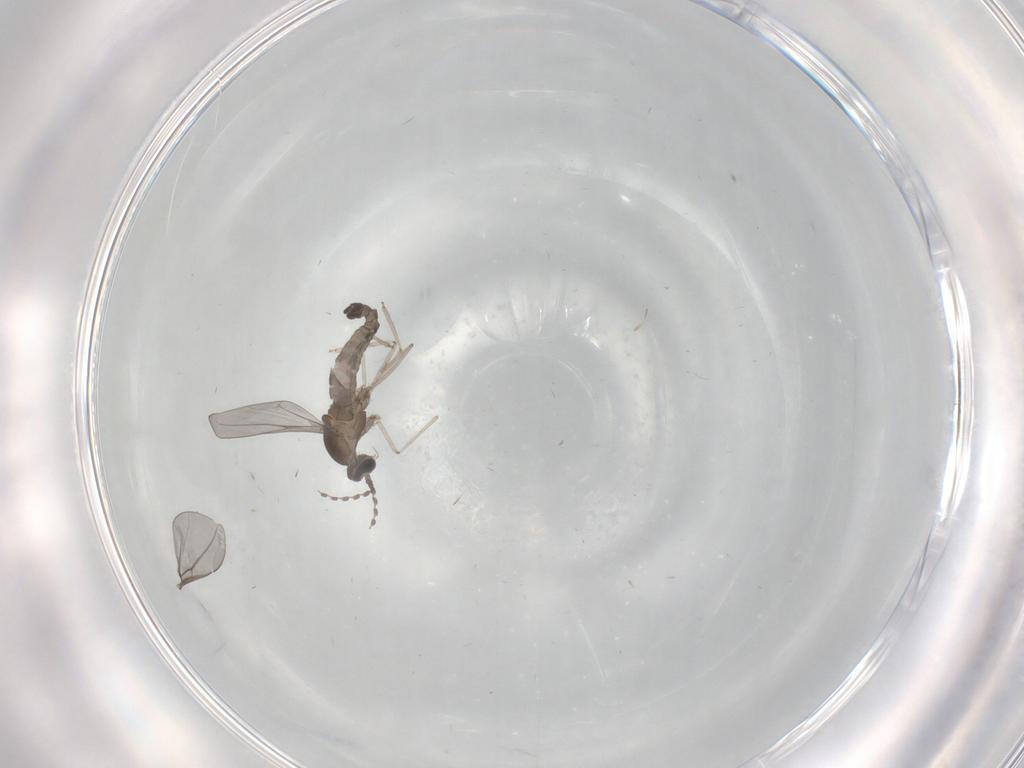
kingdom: Animalia
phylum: Arthropoda
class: Insecta
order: Diptera
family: Cecidomyiidae
